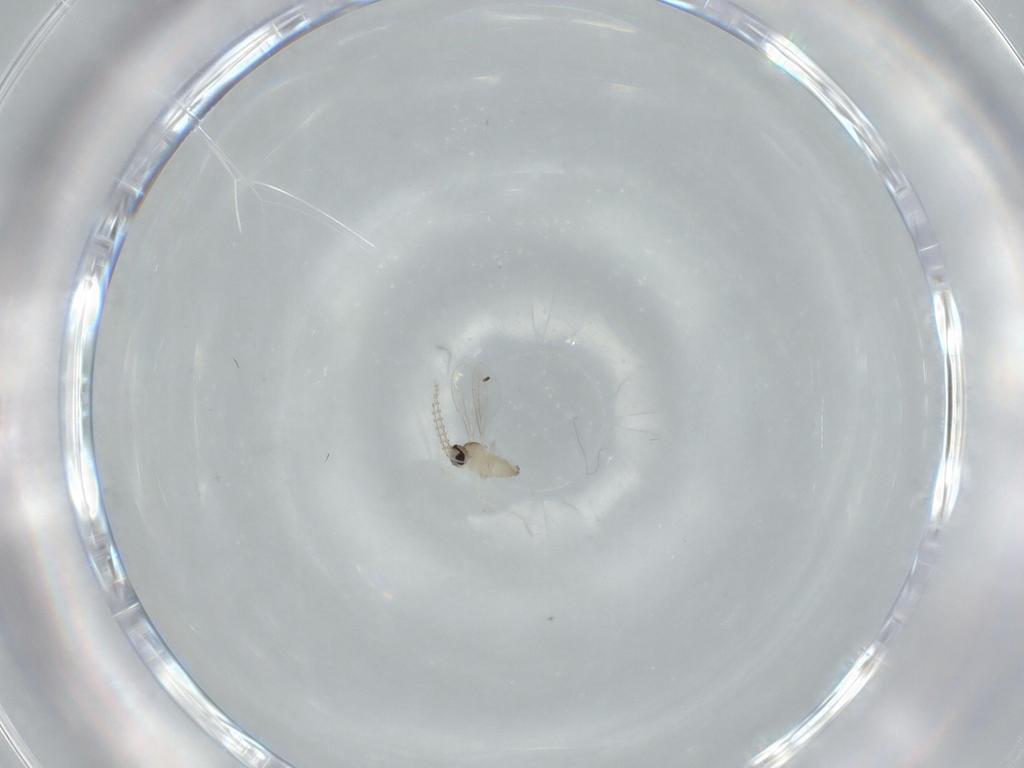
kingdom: Animalia
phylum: Arthropoda
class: Insecta
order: Diptera
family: Cecidomyiidae
